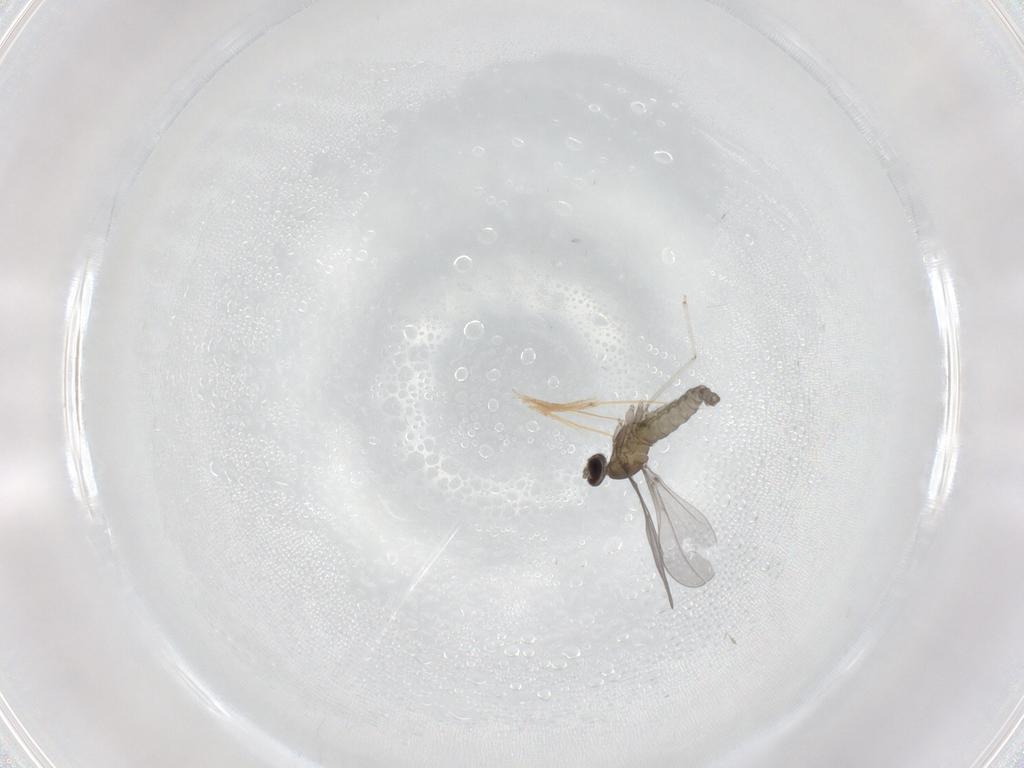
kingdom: Animalia
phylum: Arthropoda
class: Insecta
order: Diptera
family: Cecidomyiidae
